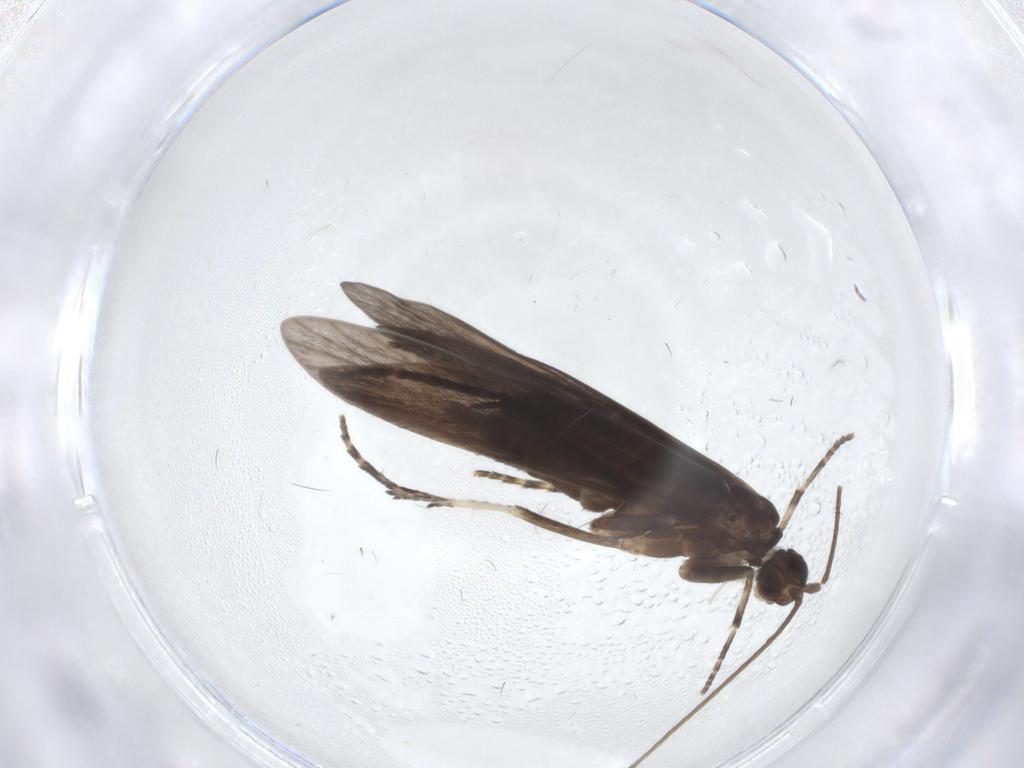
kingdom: Animalia
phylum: Arthropoda
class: Insecta
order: Trichoptera
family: Xiphocentronidae
